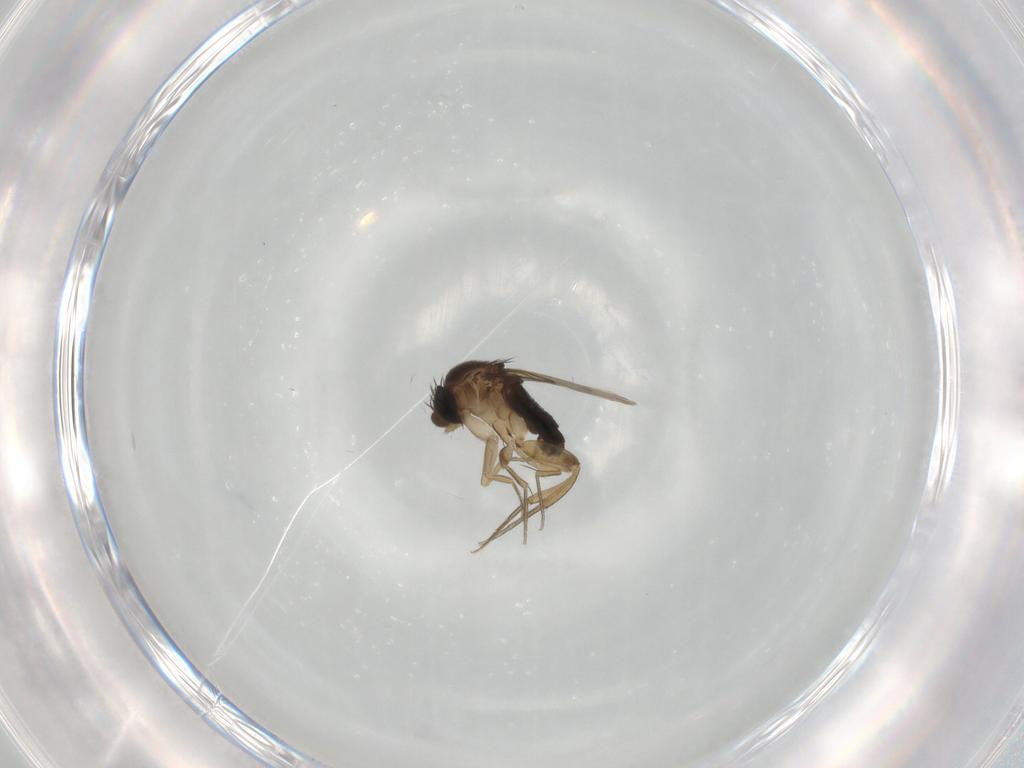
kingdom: Animalia
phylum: Arthropoda
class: Insecta
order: Diptera
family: Phoridae
